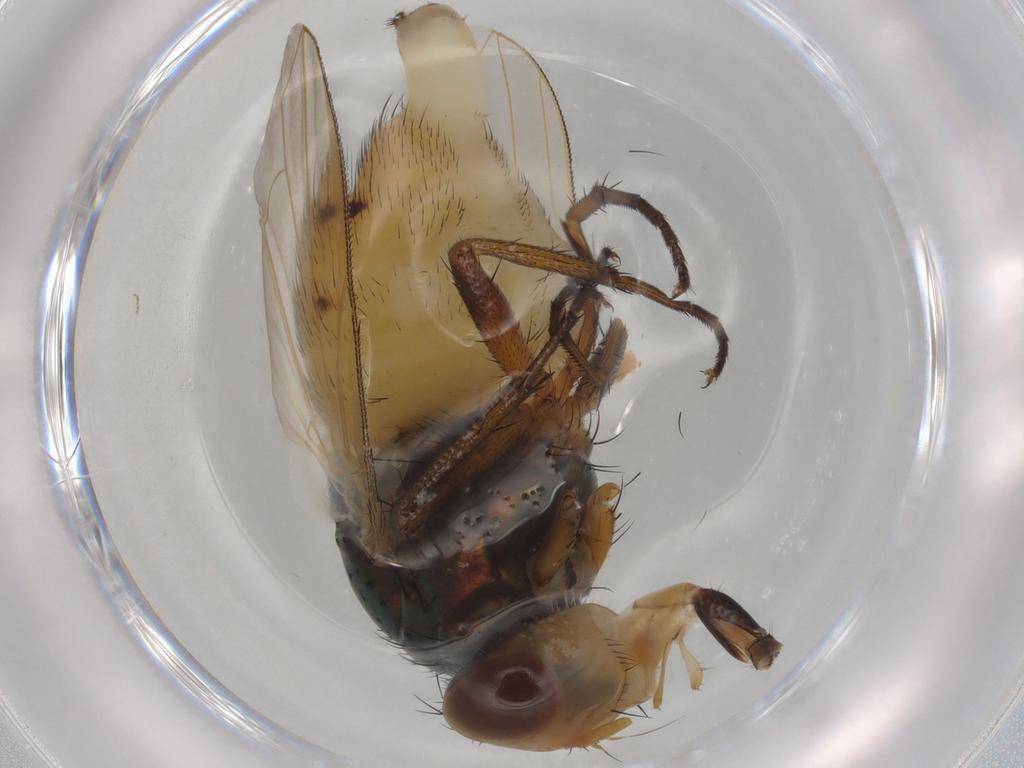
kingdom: Animalia
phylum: Arthropoda
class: Insecta
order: Diptera
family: Calliphoridae
